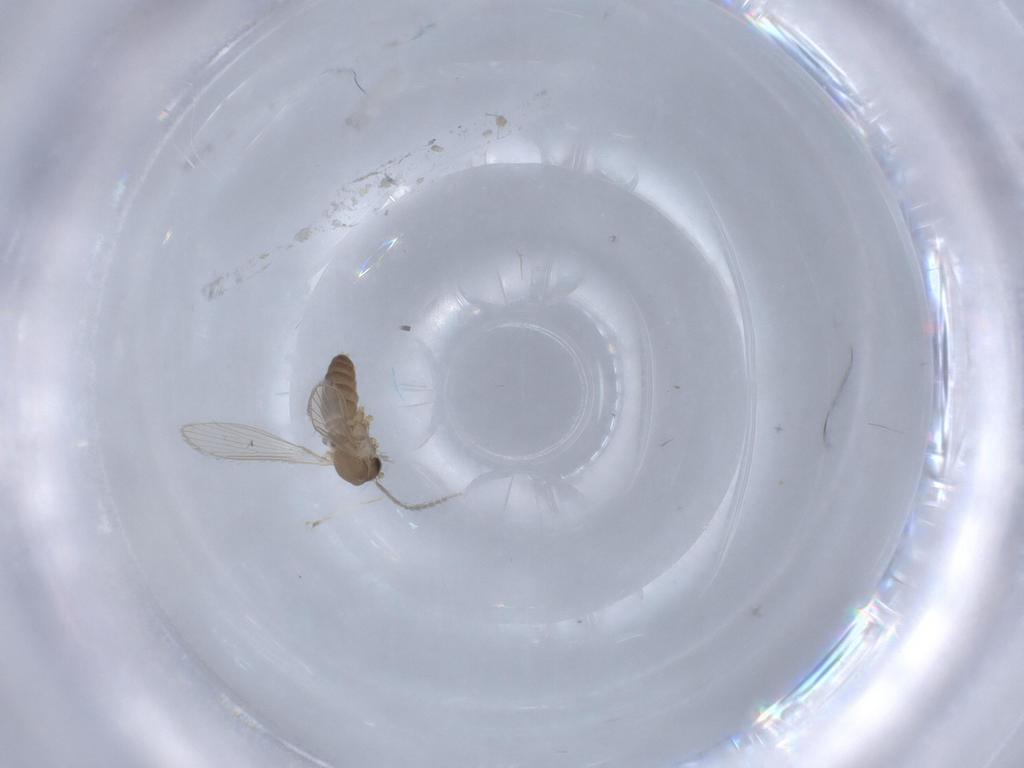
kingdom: Animalia
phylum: Arthropoda
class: Insecta
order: Diptera
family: Psychodidae
